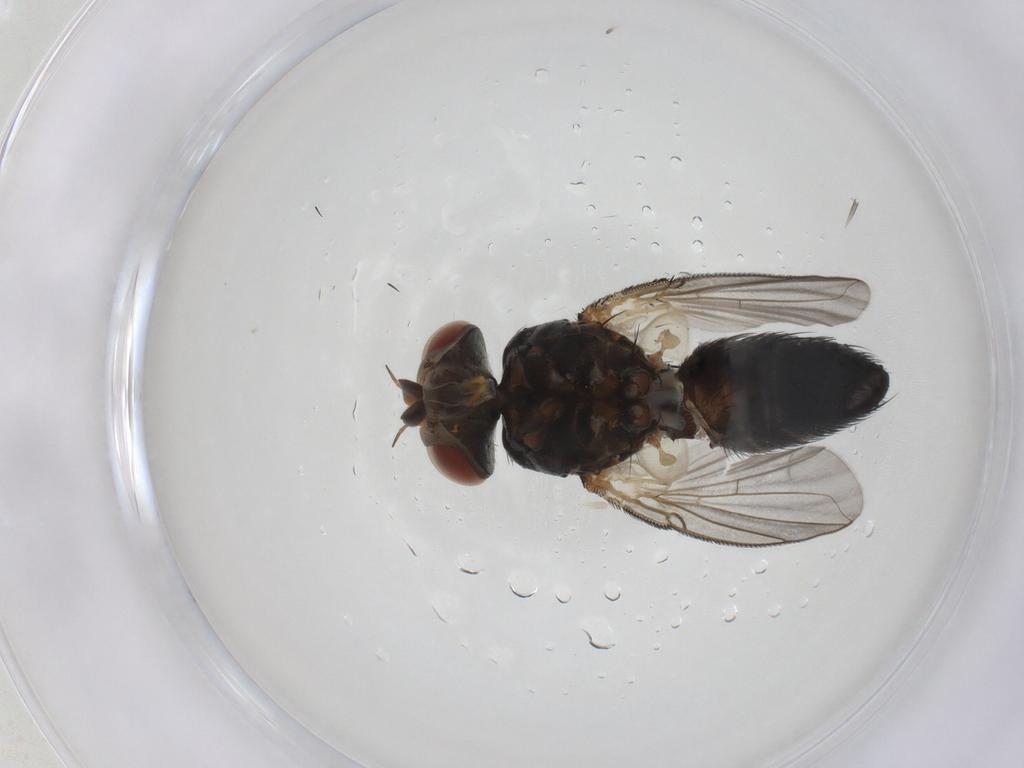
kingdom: Animalia
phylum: Arthropoda
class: Insecta
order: Diptera
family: Tachinidae
